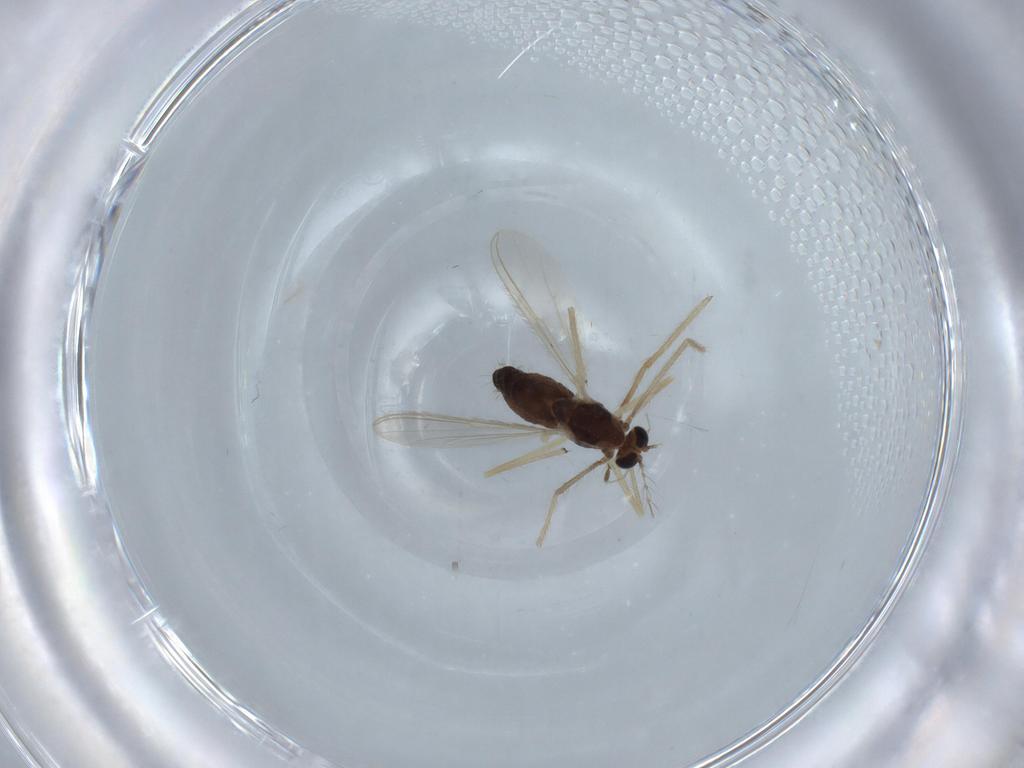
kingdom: Animalia
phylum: Arthropoda
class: Insecta
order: Diptera
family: Chironomidae
